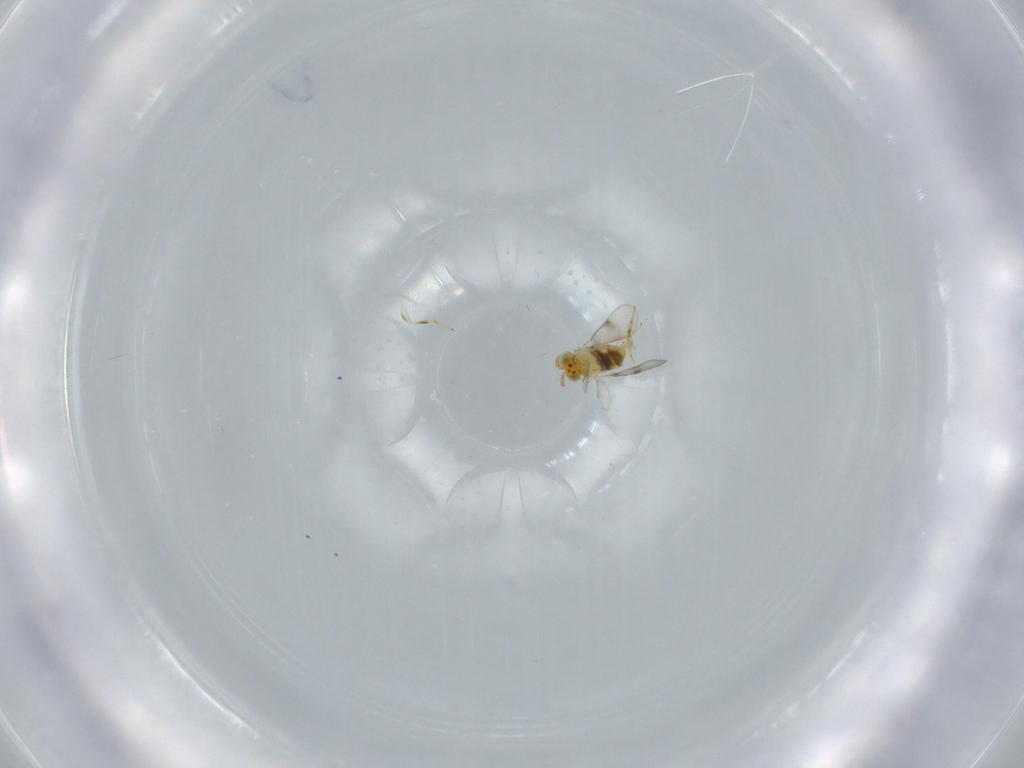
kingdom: Animalia
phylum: Arthropoda
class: Insecta
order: Hymenoptera
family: Aphelinidae
